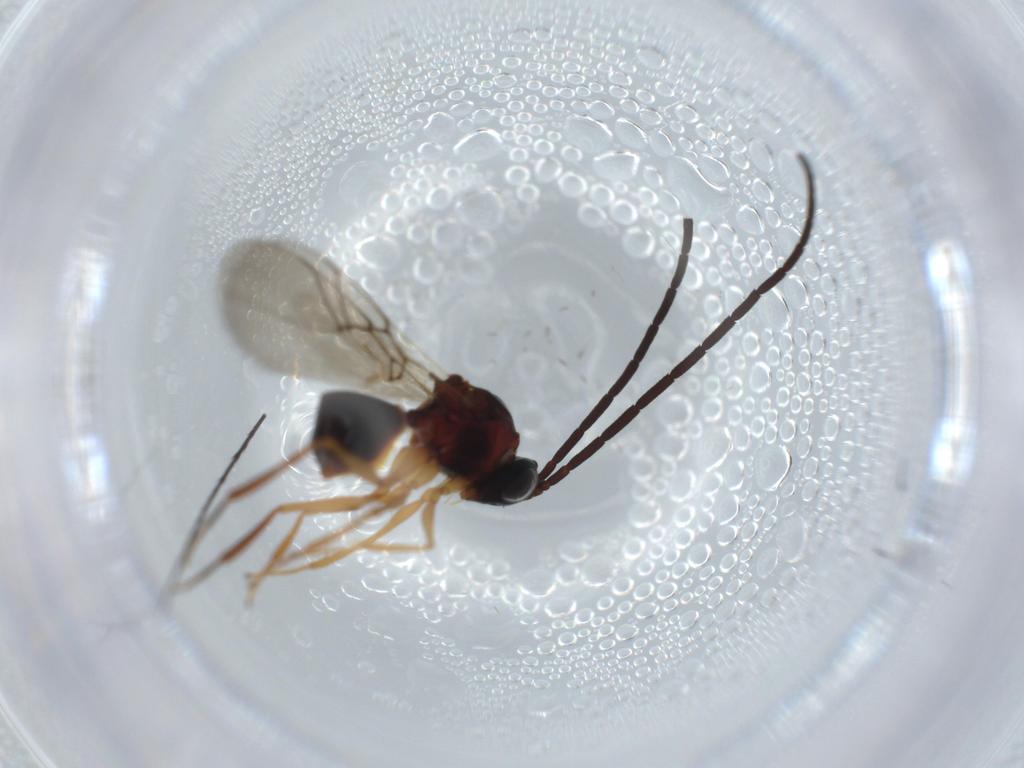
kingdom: Animalia
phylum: Arthropoda
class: Insecta
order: Hymenoptera
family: Figitidae
